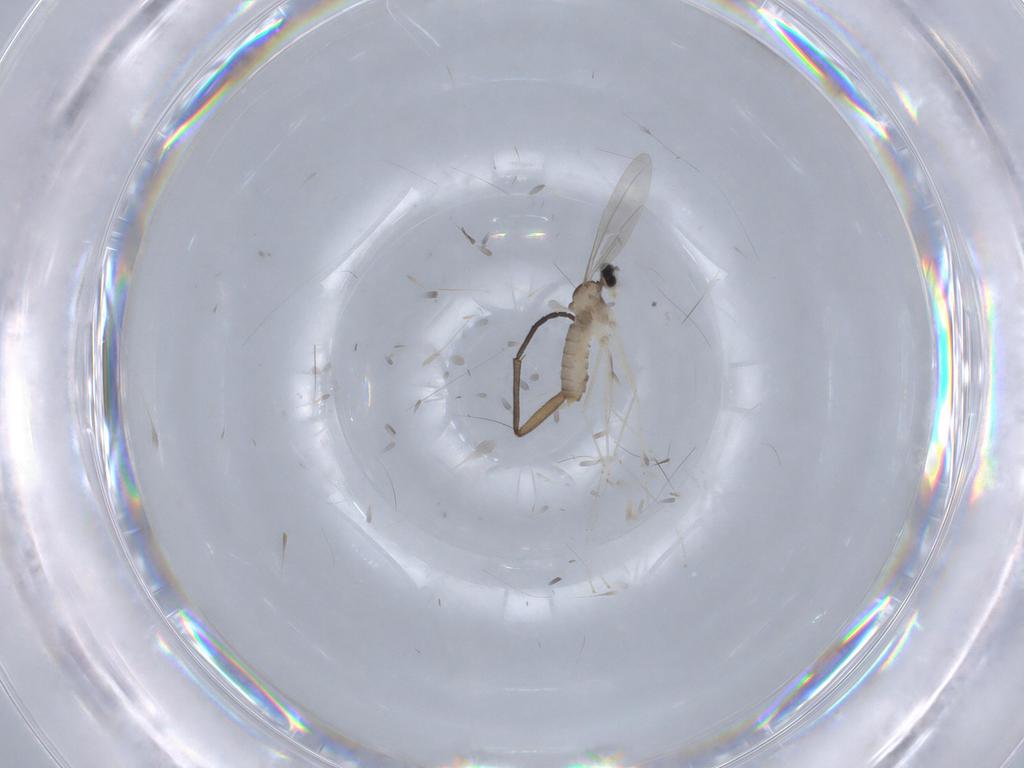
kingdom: Animalia
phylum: Arthropoda
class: Insecta
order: Diptera
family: Cecidomyiidae
